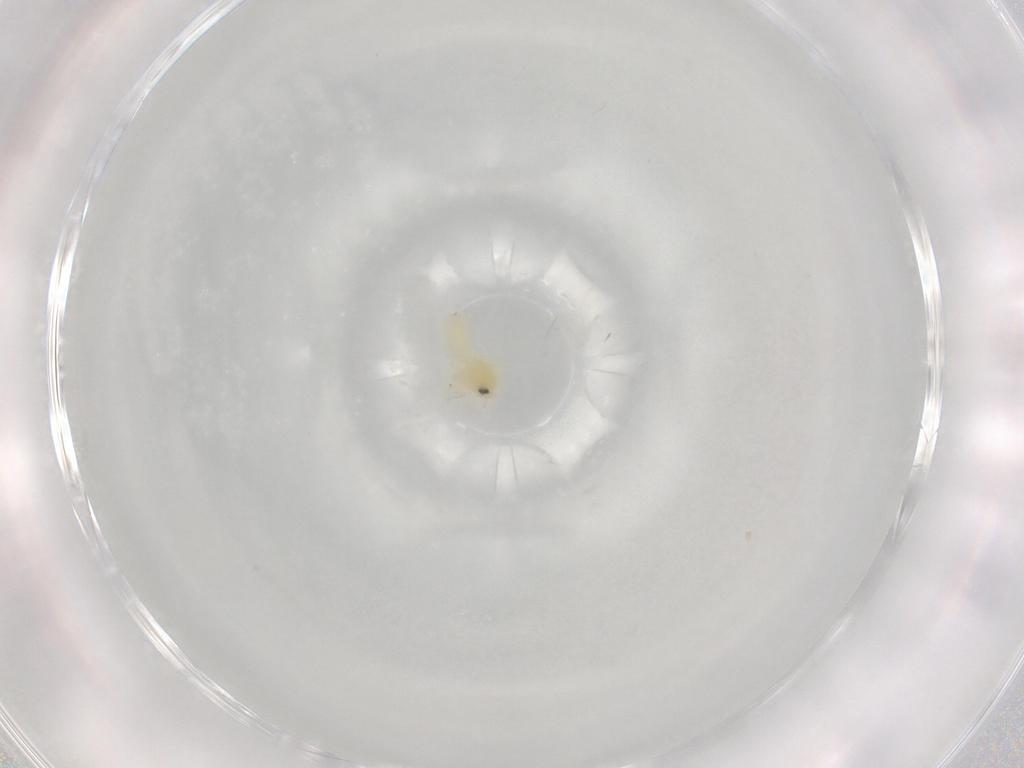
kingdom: Animalia
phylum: Arthropoda
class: Insecta
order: Hemiptera
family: Aleyrodidae
